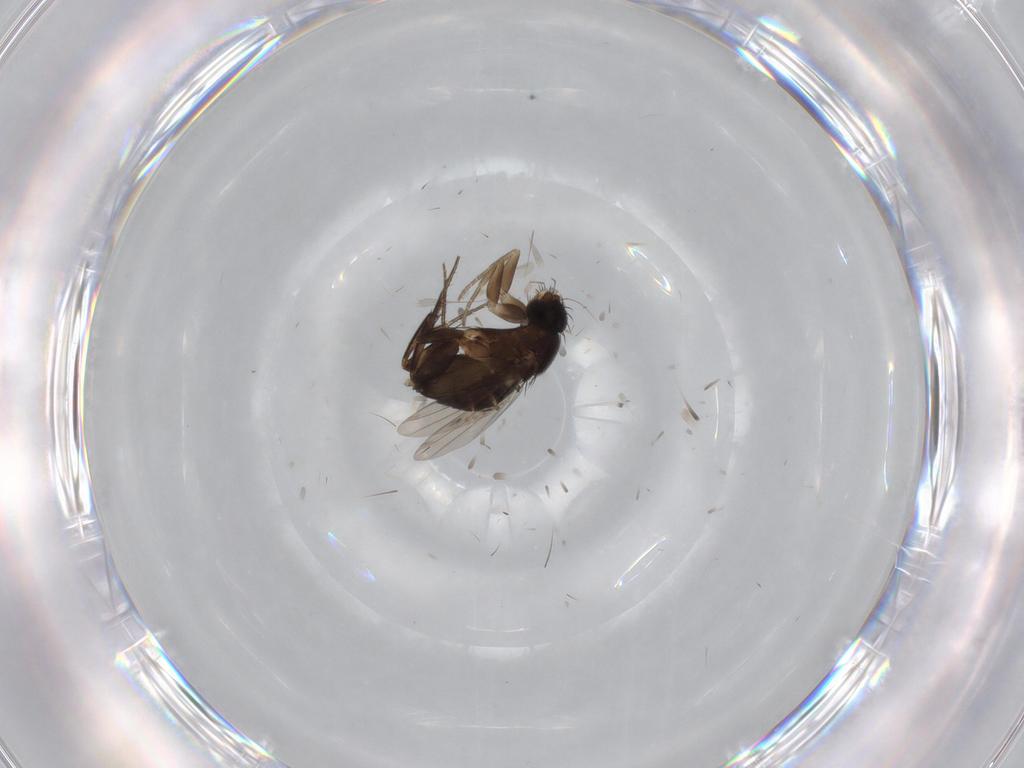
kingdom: Animalia
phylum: Arthropoda
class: Insecta
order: Diptera
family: Phoridae
